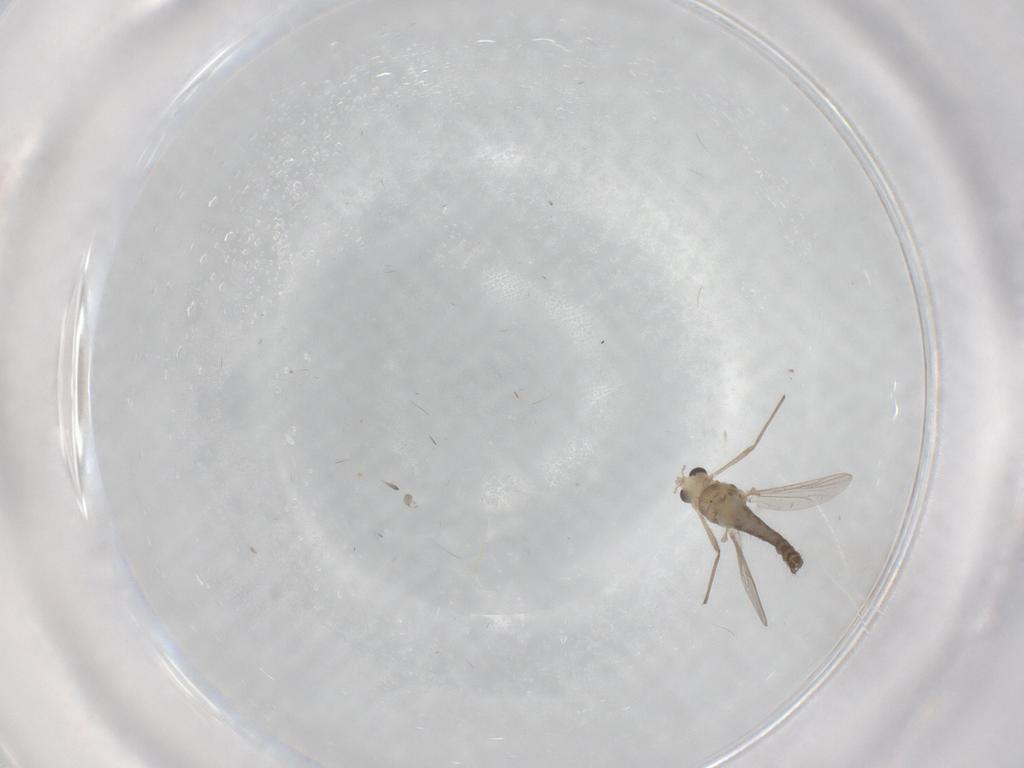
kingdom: Animalia
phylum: Arthropoda
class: Insecta
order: Diptera
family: Chironomidae
